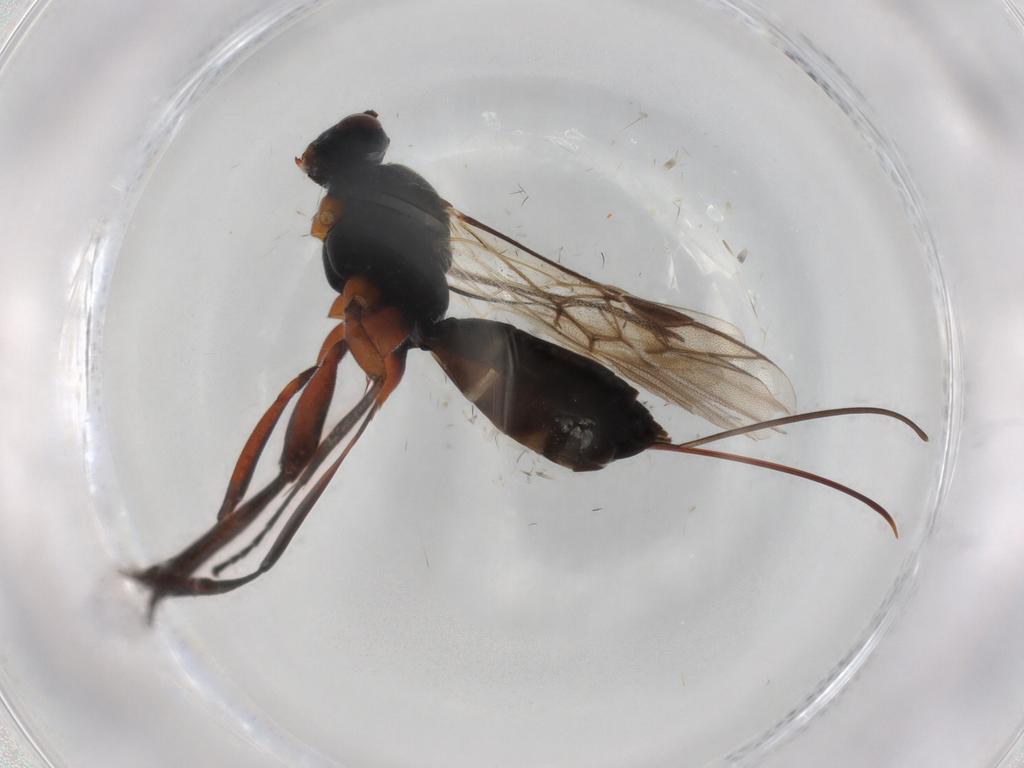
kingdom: Animalia
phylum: Arthropoda
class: Insecta
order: Hymenoptera
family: Braconidae
